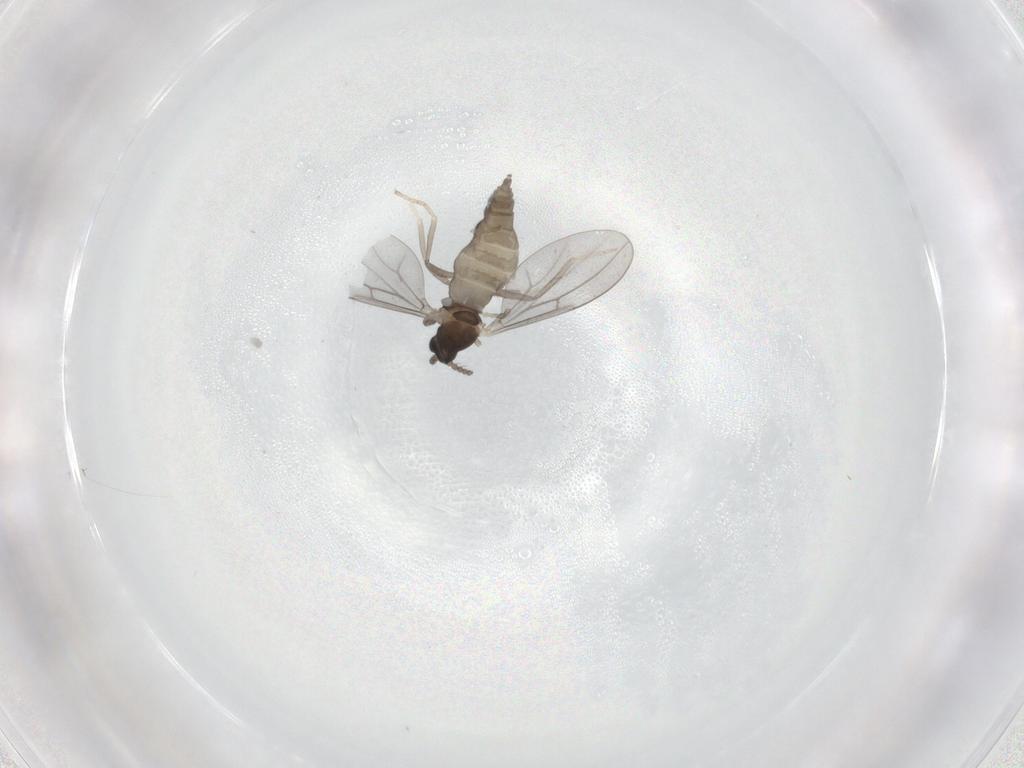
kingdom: Animalia
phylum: Arthropoda
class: Insecta
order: Diptera
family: Cecidomyiidae
